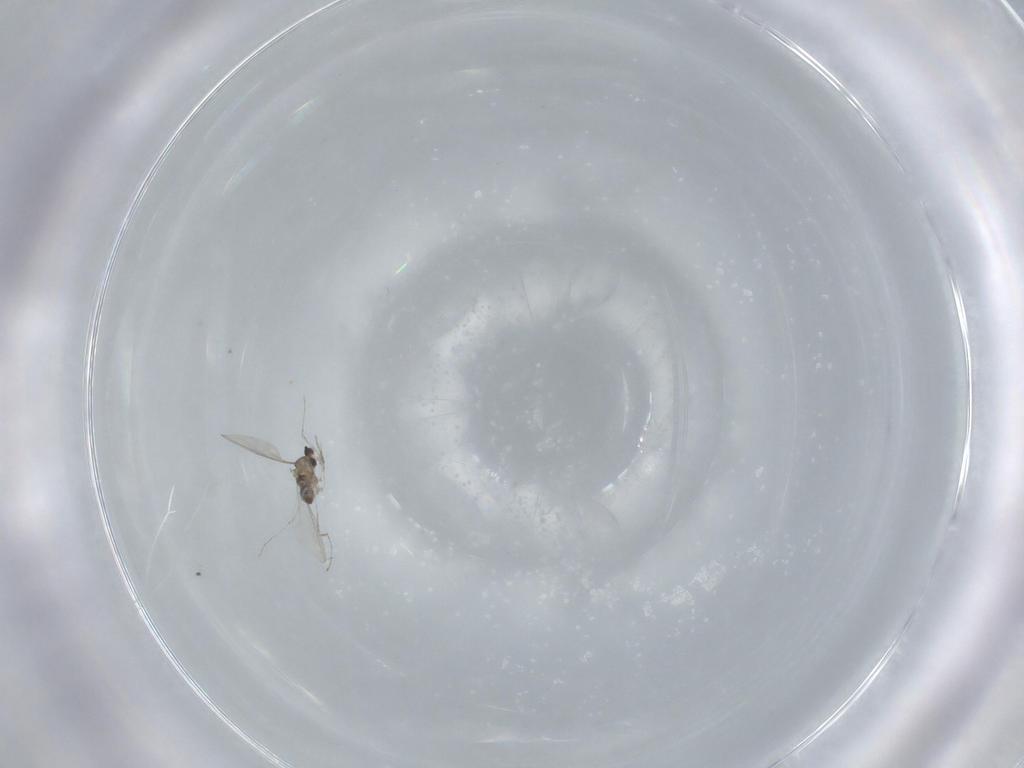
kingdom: Animalia
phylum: Arthropoda
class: Insecta
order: Diptera
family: Cecidomyiidae
